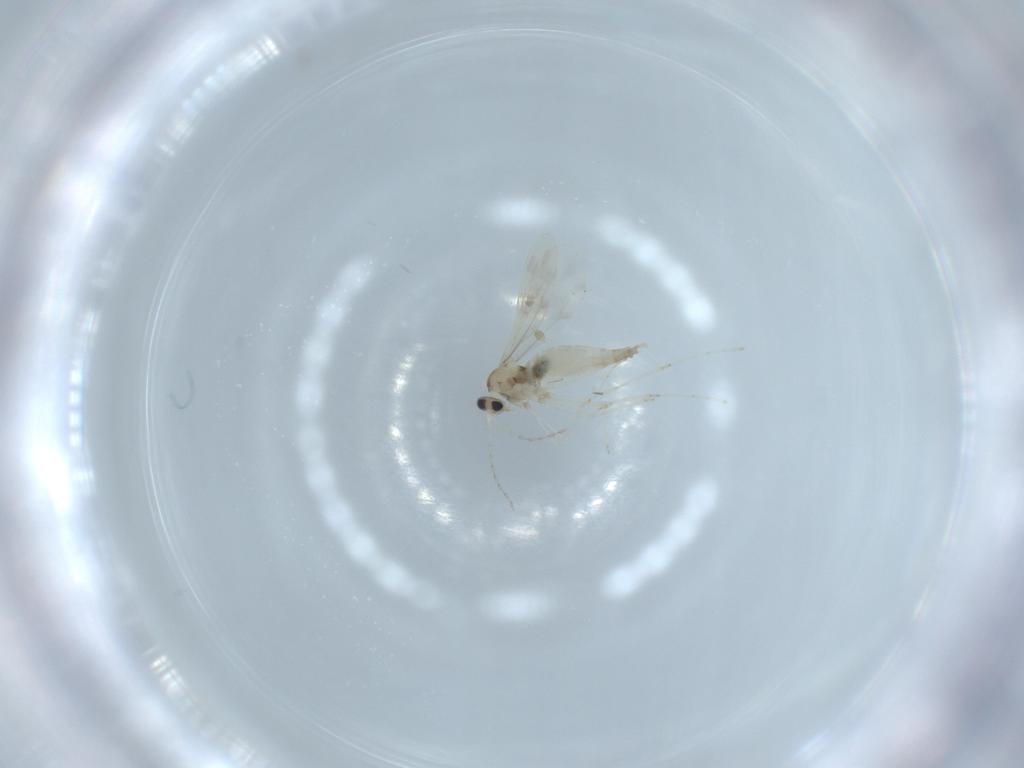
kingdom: Animalia
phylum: Arthropoda
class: Insecta
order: Diptera
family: Cecidomyiidae
